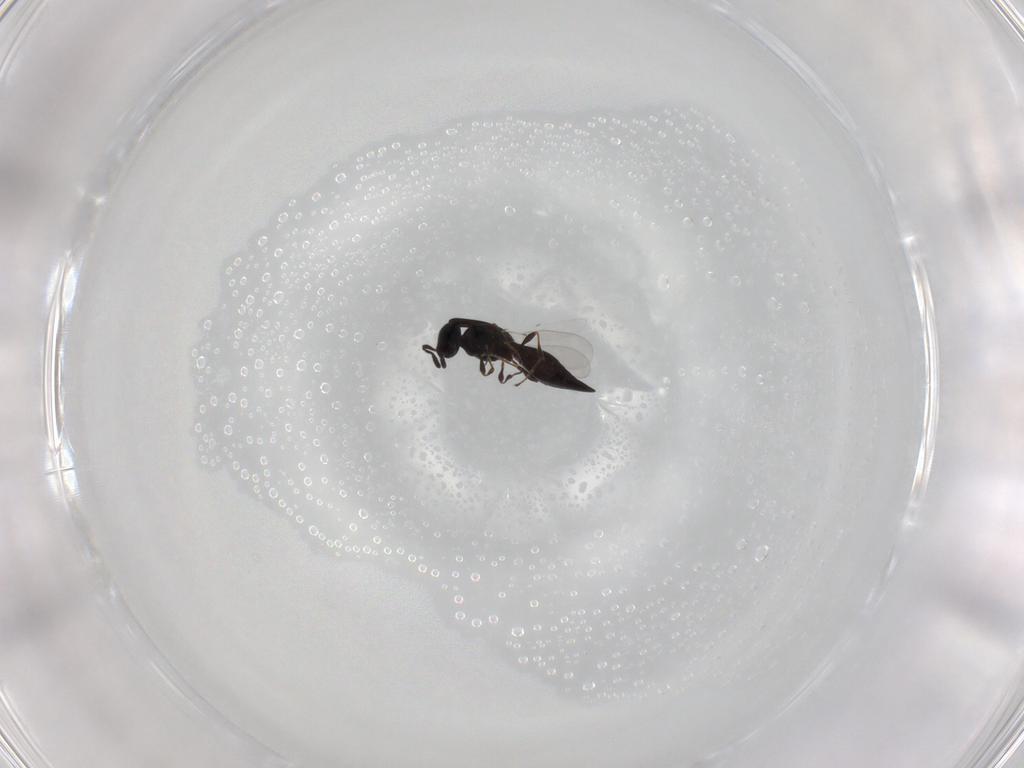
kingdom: Animalia
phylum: Arthropoda
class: Insecta
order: Hymenoptera
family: Platygastridae
